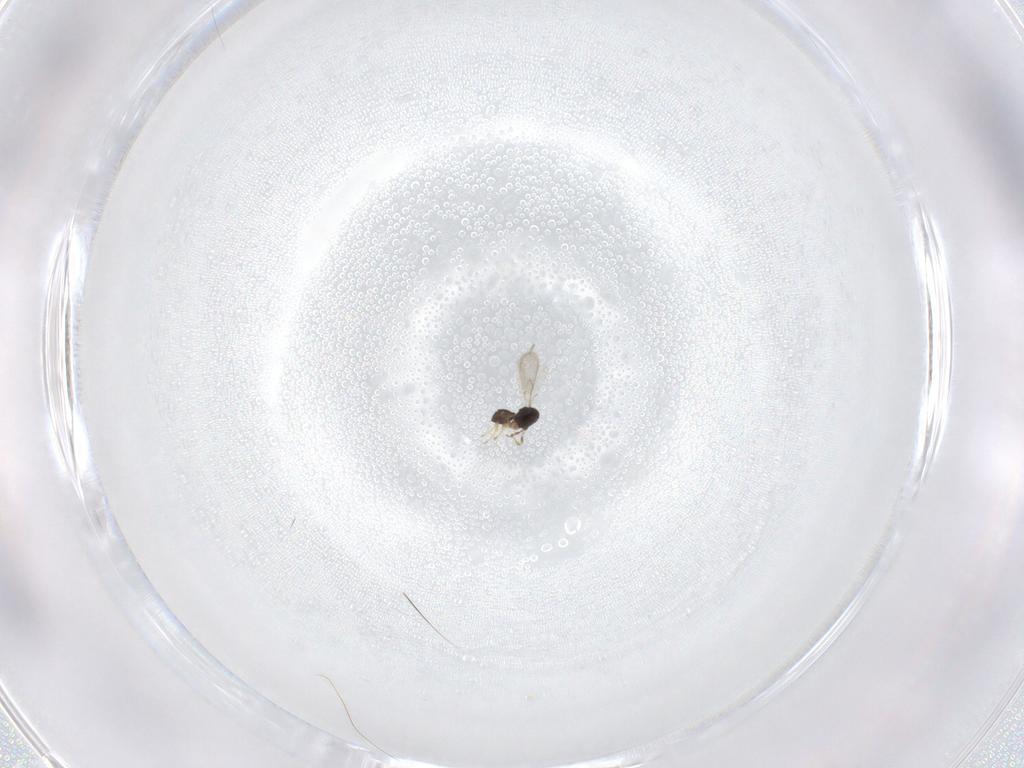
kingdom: Animalia
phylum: Arthropoda
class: Insecta
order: Hymenoptera
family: Scelionidae
